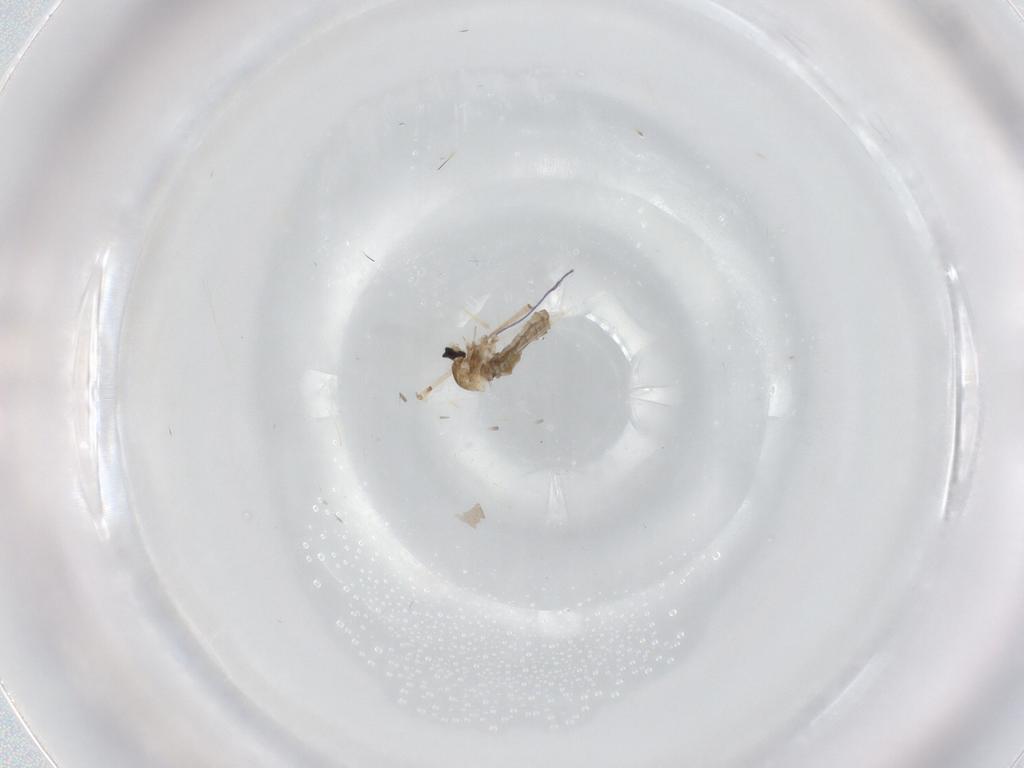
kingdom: Animalia
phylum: Arthropoda
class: Insecta
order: Diptera
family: Cecidomyiidae
